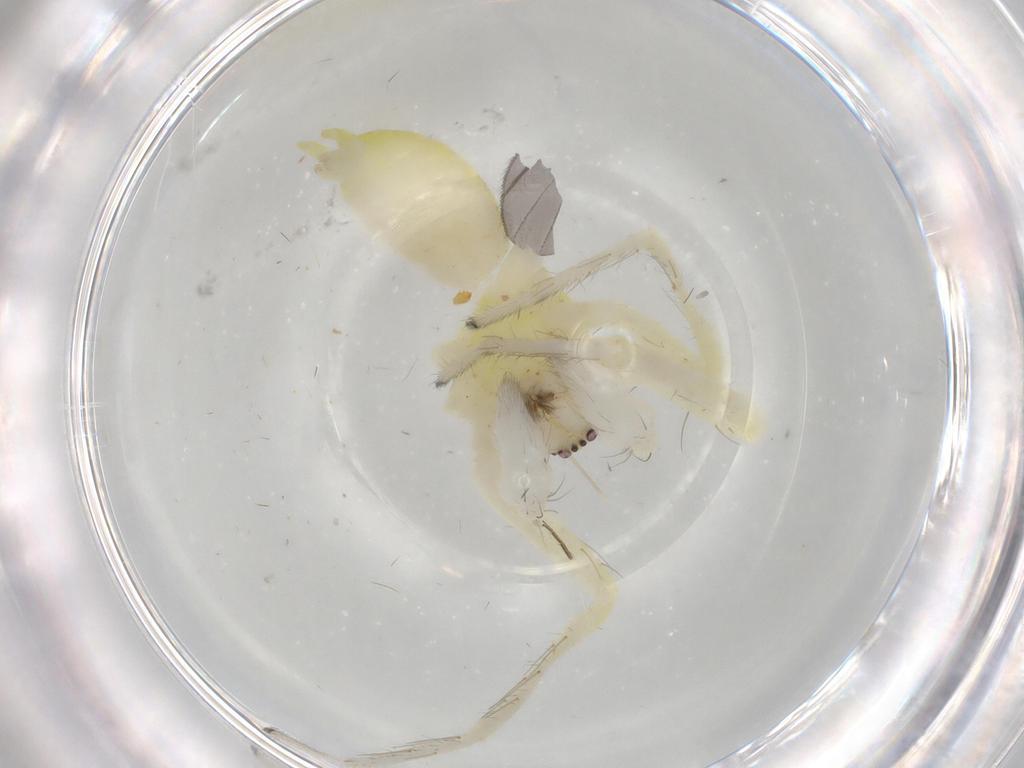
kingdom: Animalia
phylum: Arthropoda
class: Arachnida
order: Araneae
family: Anyphaenidae
